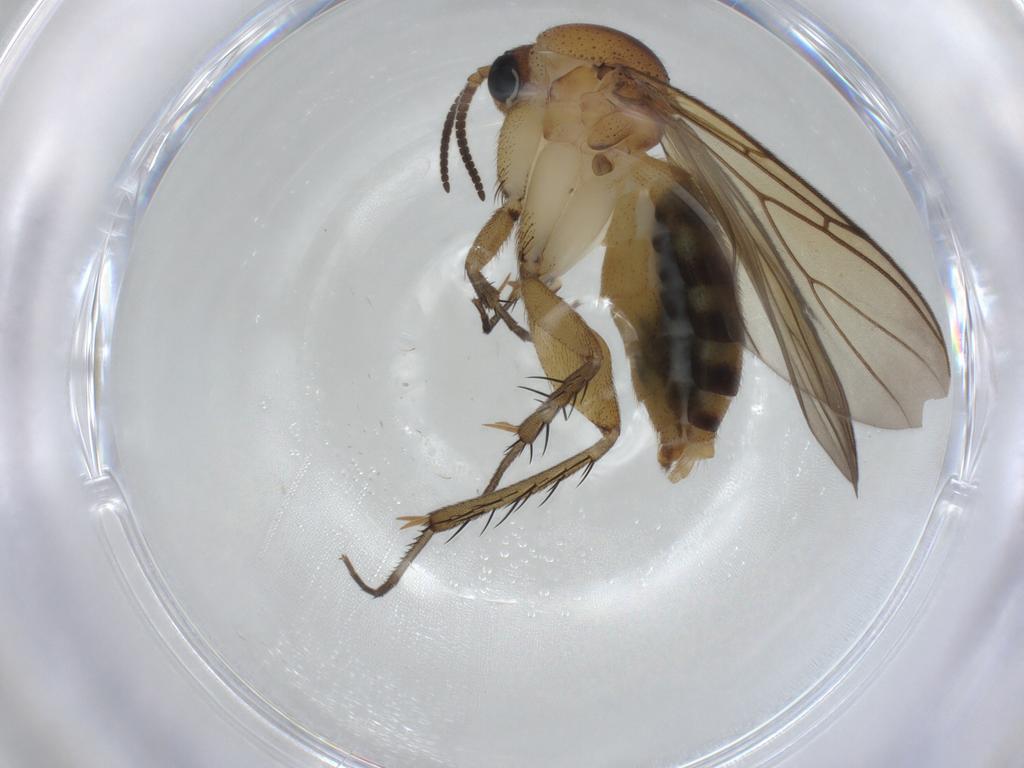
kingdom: Animalia
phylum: Arthropoda
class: Insecta
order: Diptera
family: Mycetophilidae
